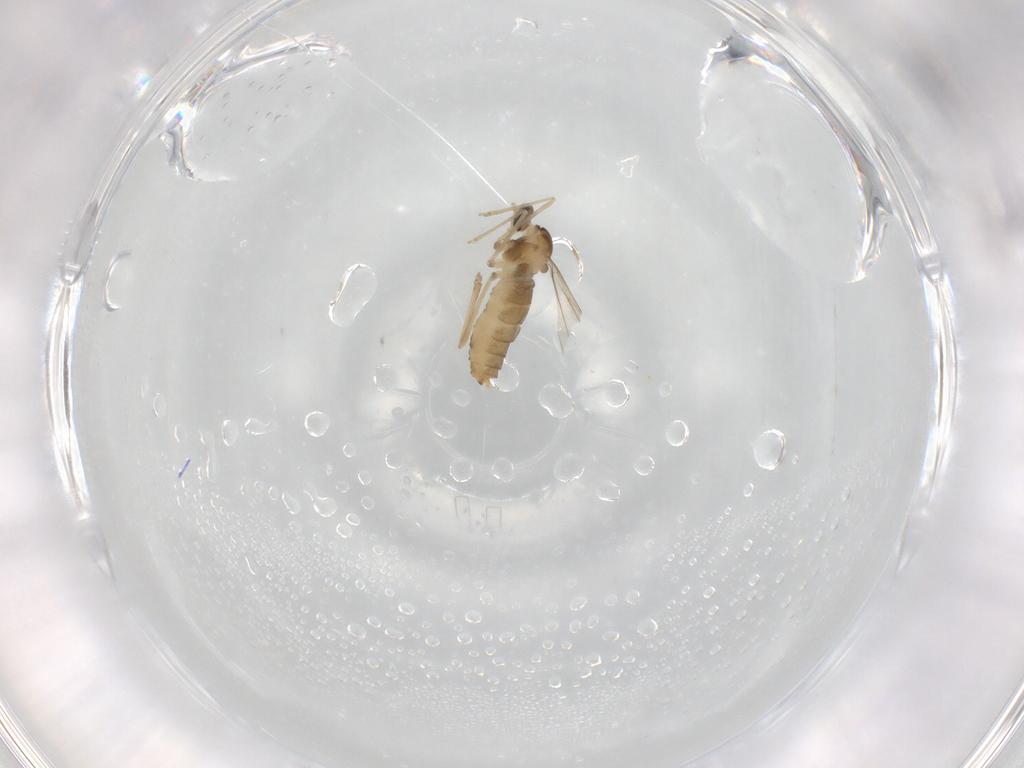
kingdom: Animalia
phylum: Arthropoda
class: Insecta
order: Diptera
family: Cecidomyiidae
